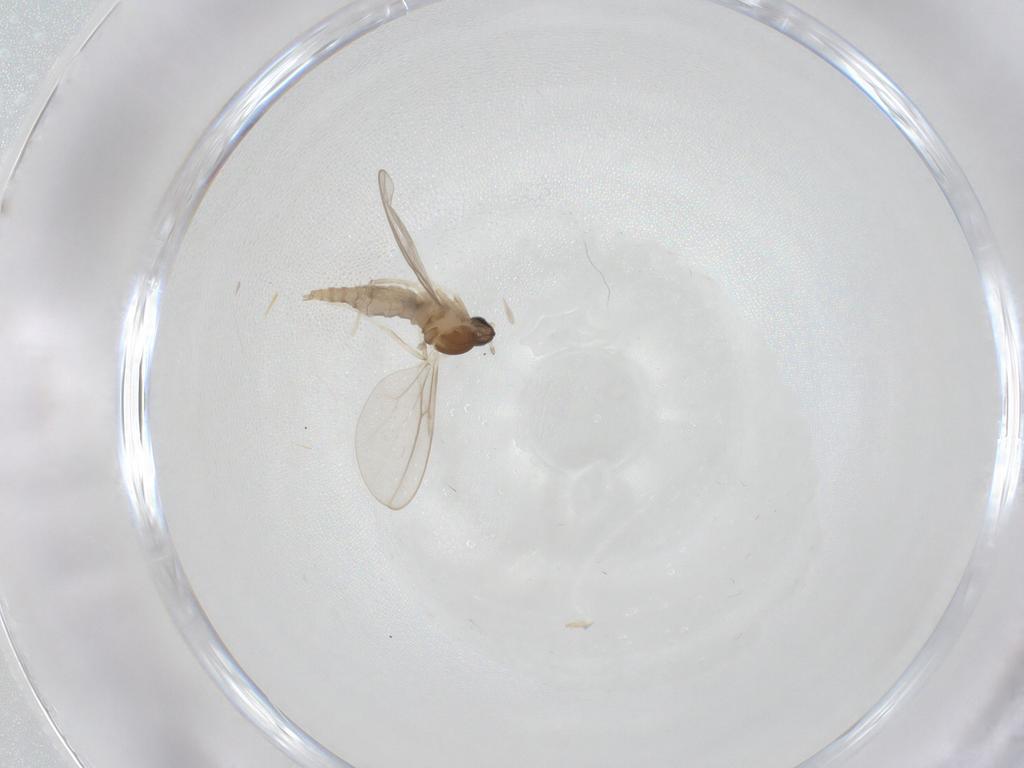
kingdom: Animalia
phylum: Arthropoda
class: Insecta
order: Diptera
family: Cecidomyiidae
